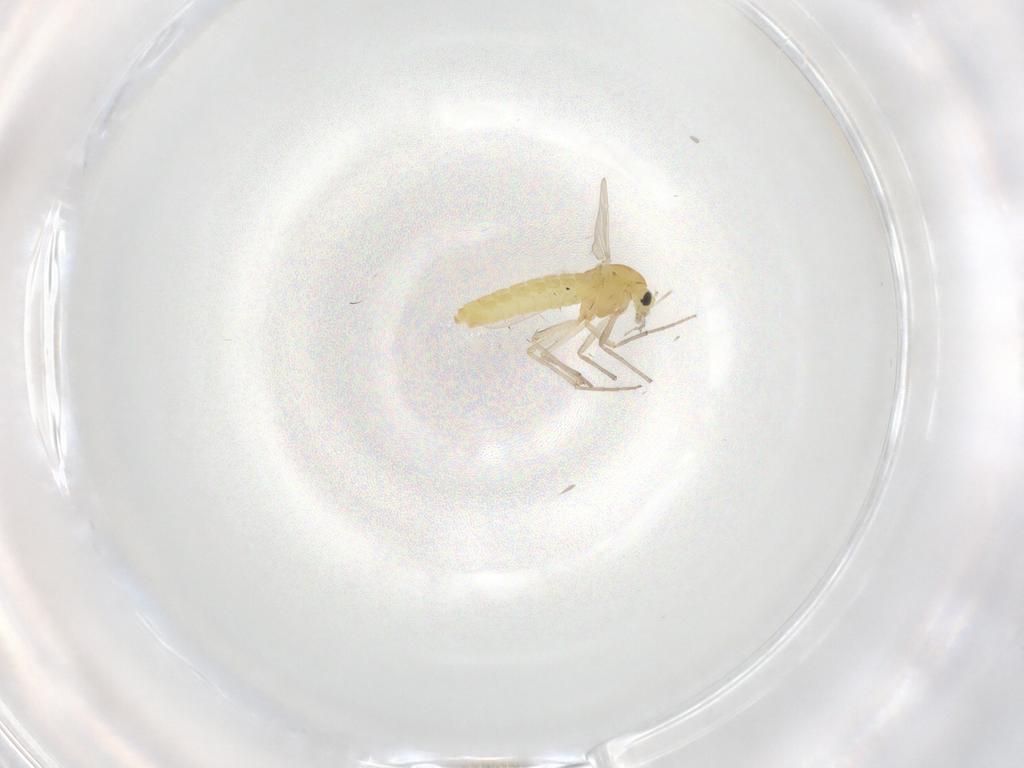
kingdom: Animalia
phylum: Arthropoda
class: Insecta
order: Diptera
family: Chironomidae
